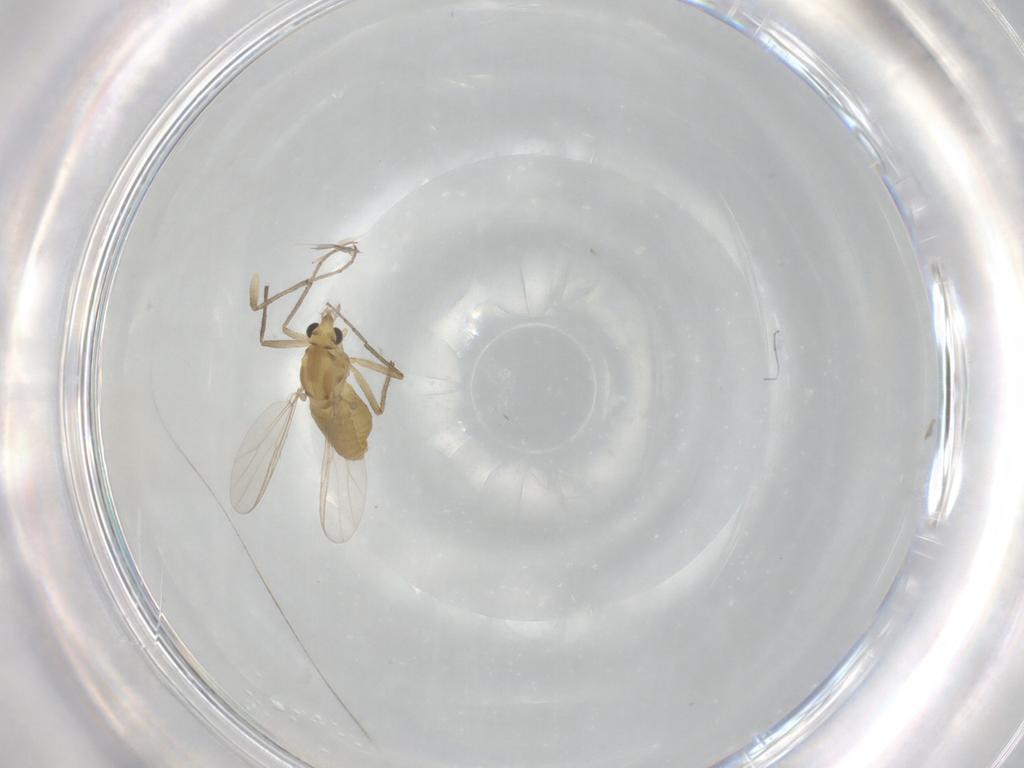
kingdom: Animalia
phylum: Arthropoda
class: Insecta
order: Diptera
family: Chironomidae
